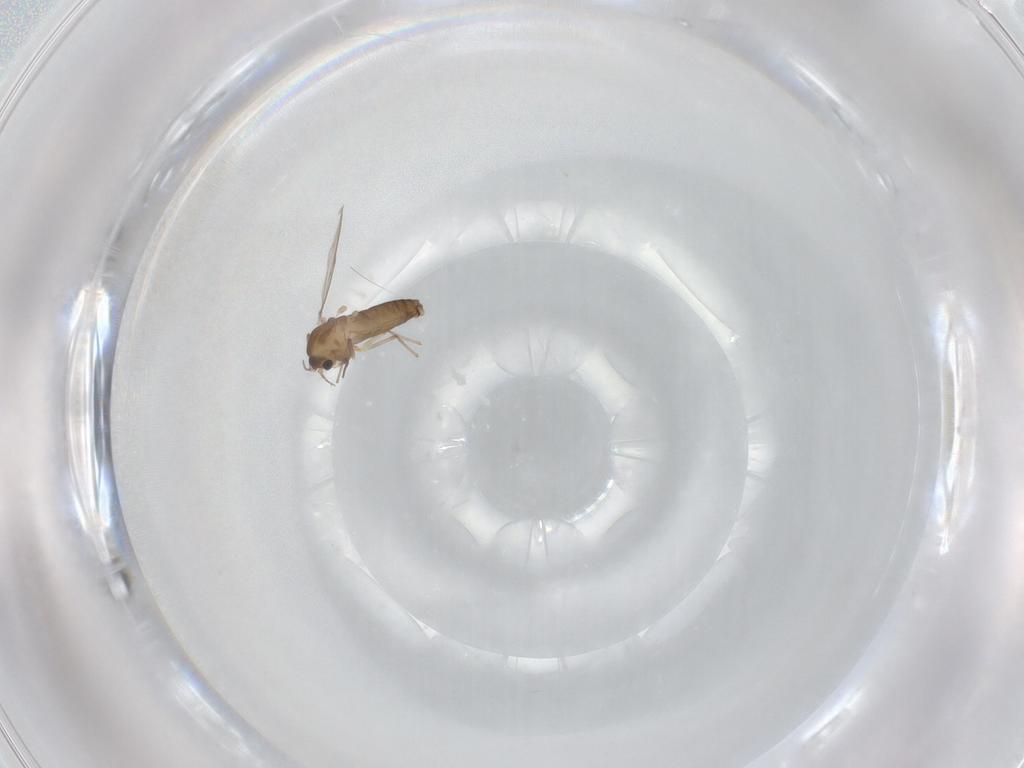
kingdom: Animalia
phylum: Arthropoda
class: Insecta
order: Diptera
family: Chironomidae
